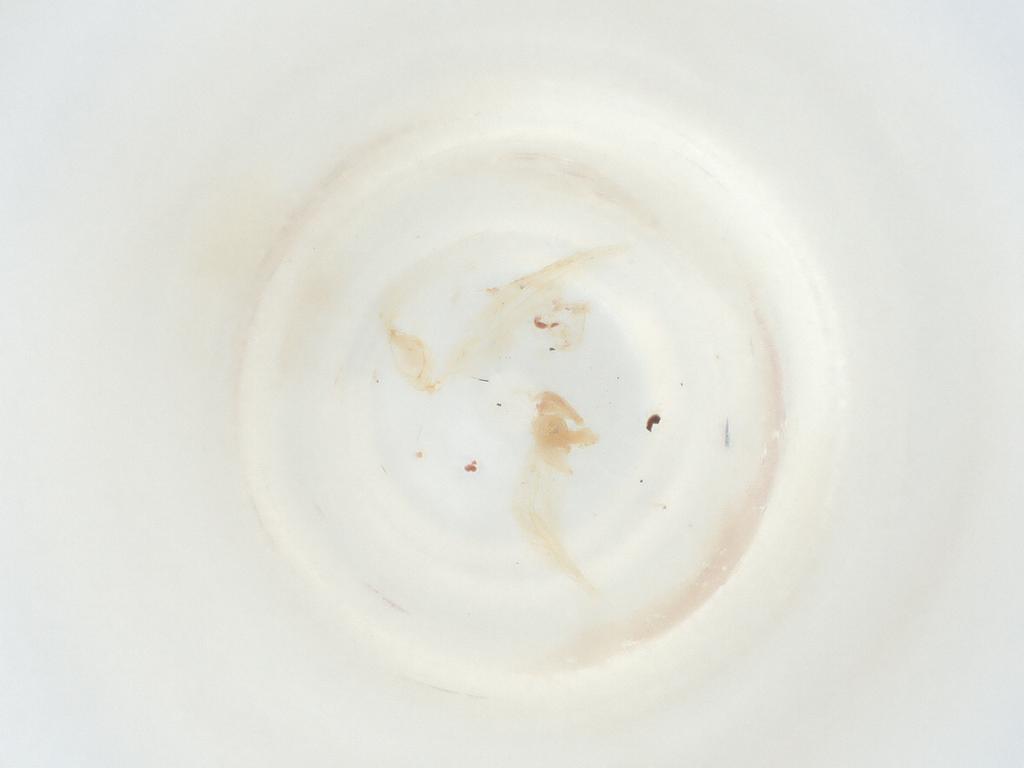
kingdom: Animalia
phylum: Arthropoda
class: Insecta
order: Lepidoptera
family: Lyonetiidae
